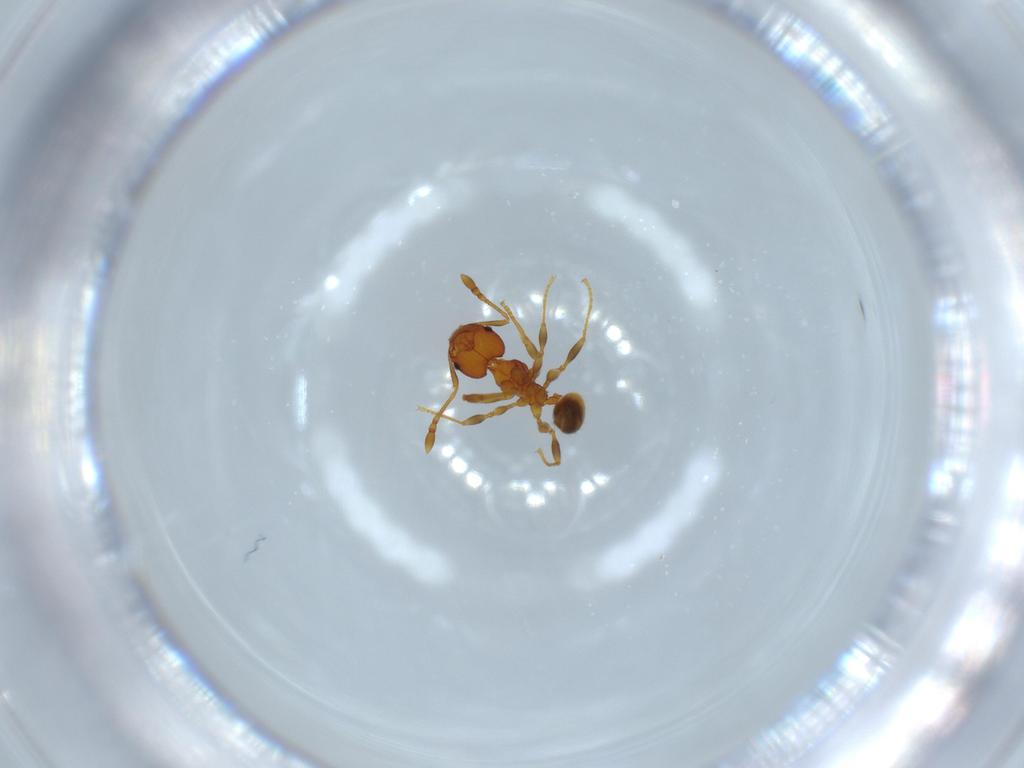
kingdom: Animalia
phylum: Arthropoda
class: Insecta
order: Hymenoptera
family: Formicidae
